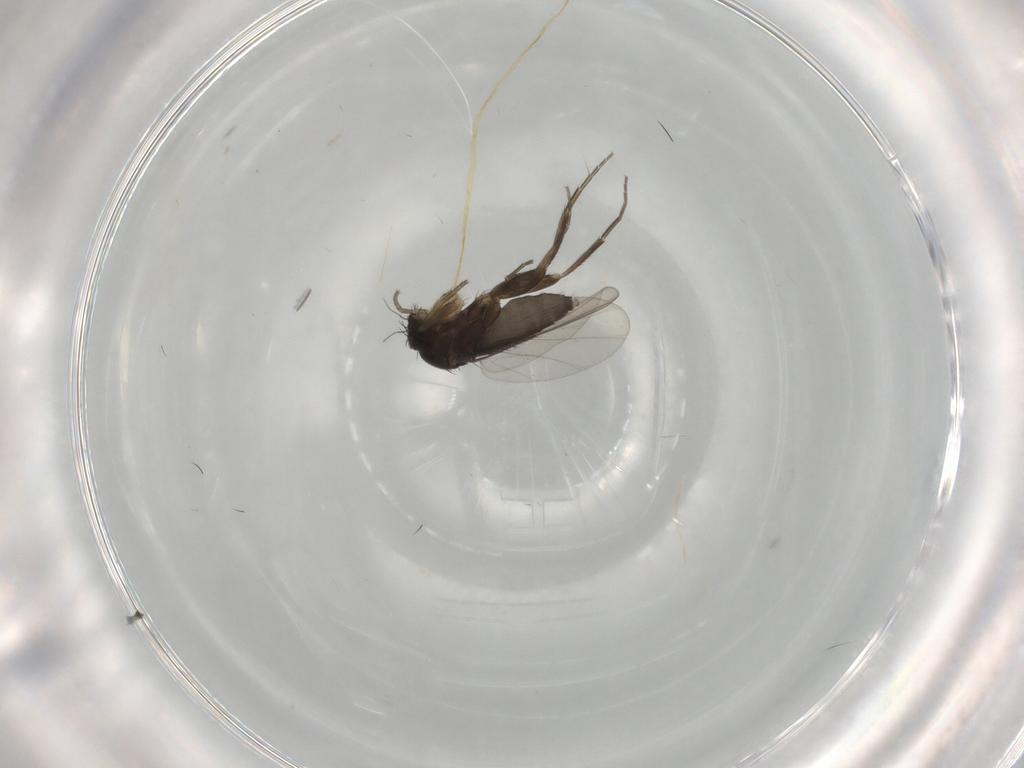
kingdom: Animalia
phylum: Arthropoda
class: Insecta
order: Diptera
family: Phoridae
